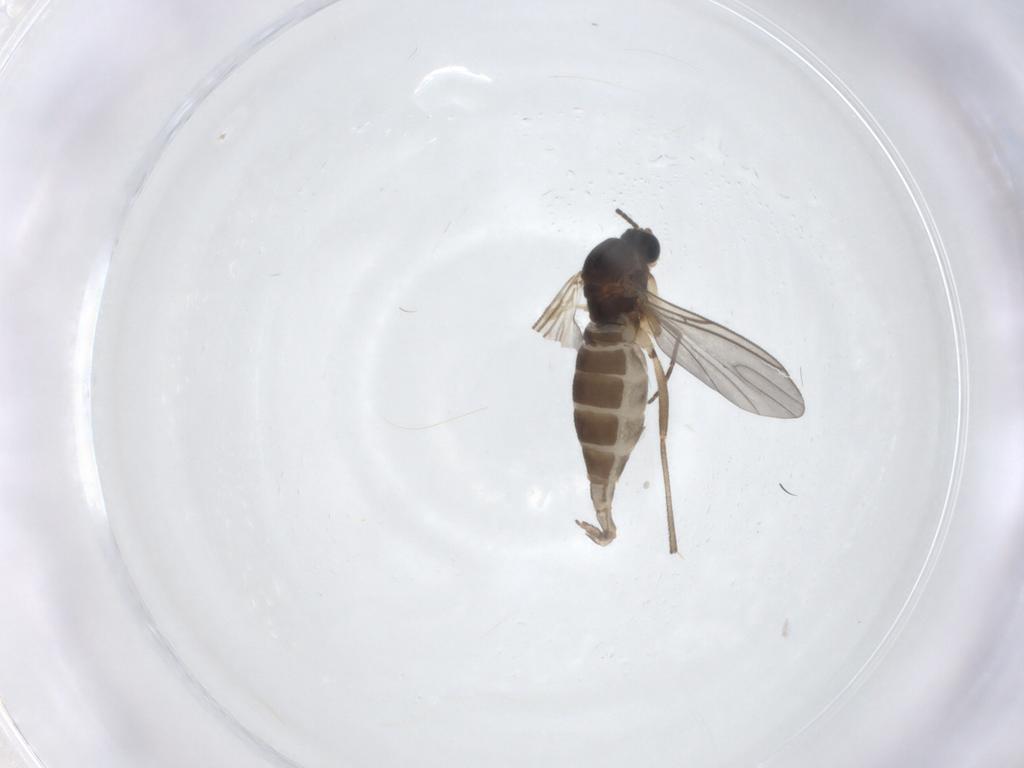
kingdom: Animalia
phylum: Arthropoda
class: Insecta
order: Diptera
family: Sciaridae
